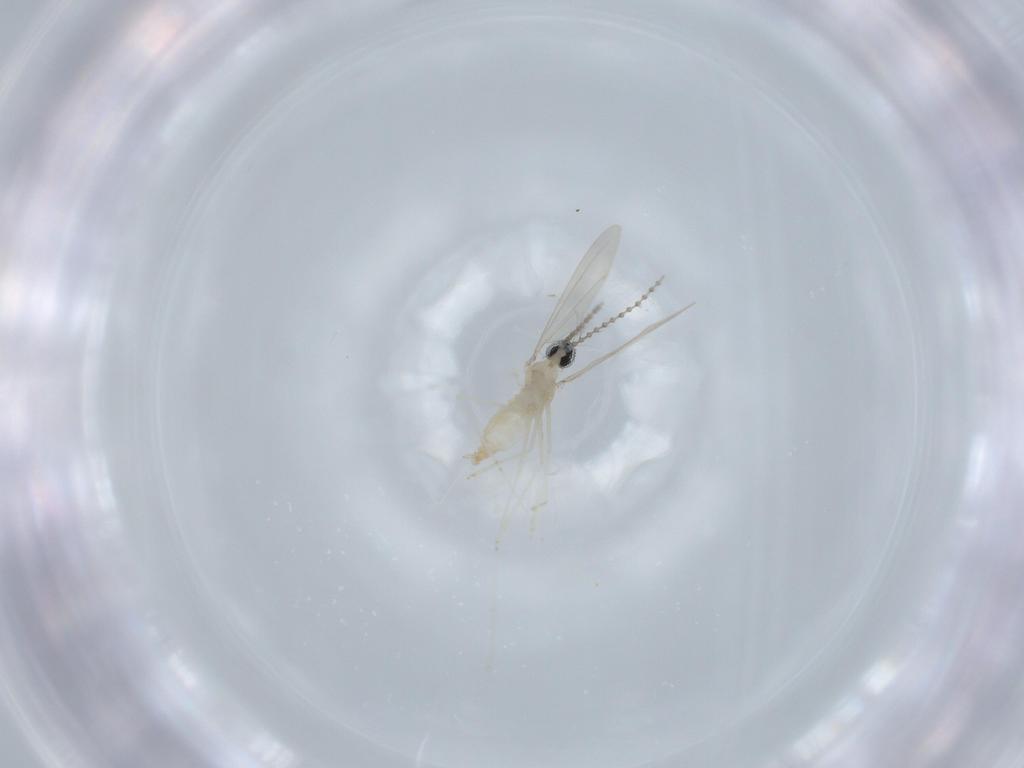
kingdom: Animalia
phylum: Arthropoda
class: Insecta
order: Diptera
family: Cecidomyiidae
